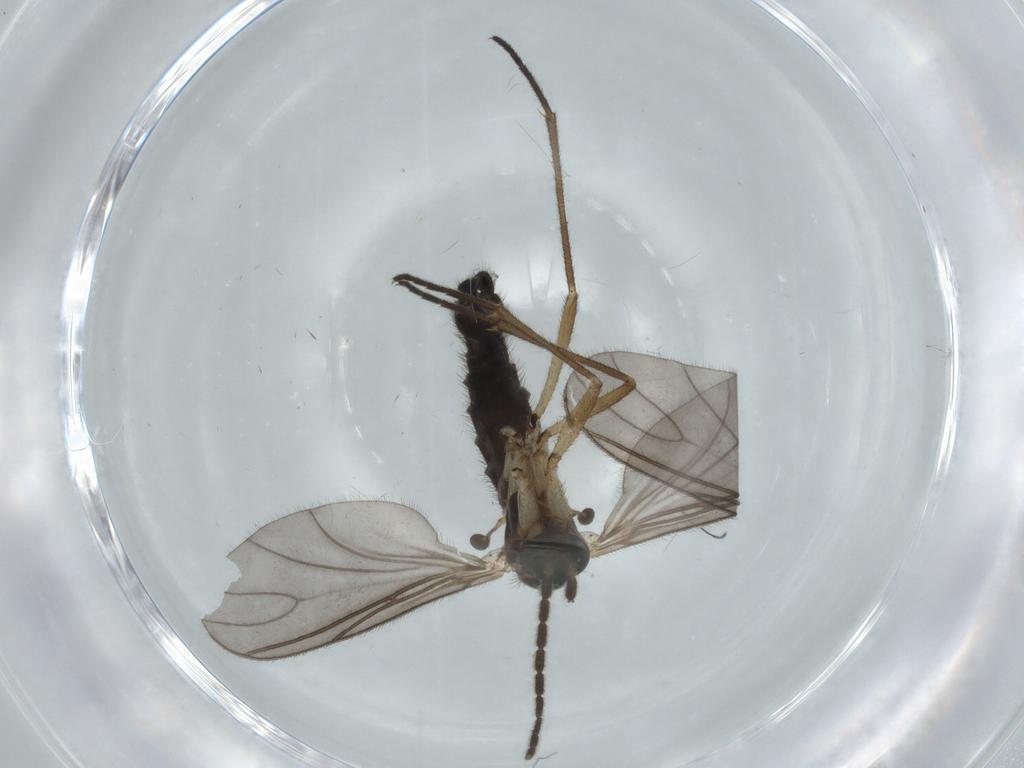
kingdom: Animalia
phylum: Arthropoda
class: Insecta
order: Diptera
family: Sciaridae
